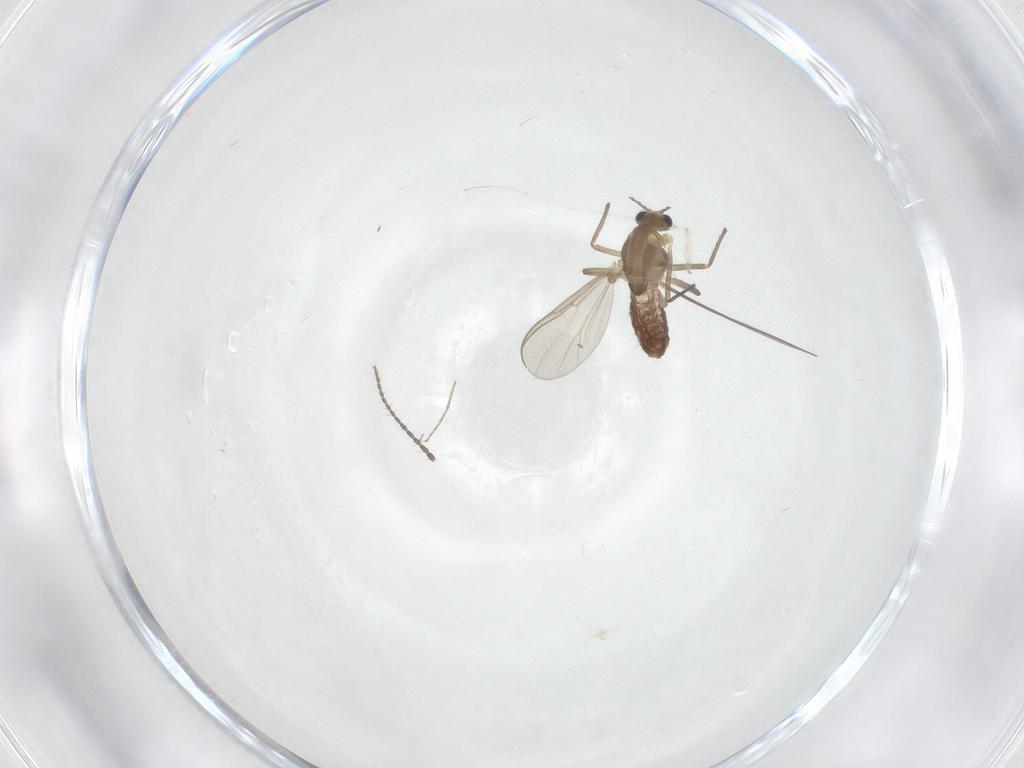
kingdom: Animalia
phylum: Arthropoda
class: Insecta
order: Diptera
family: Chironomidae
